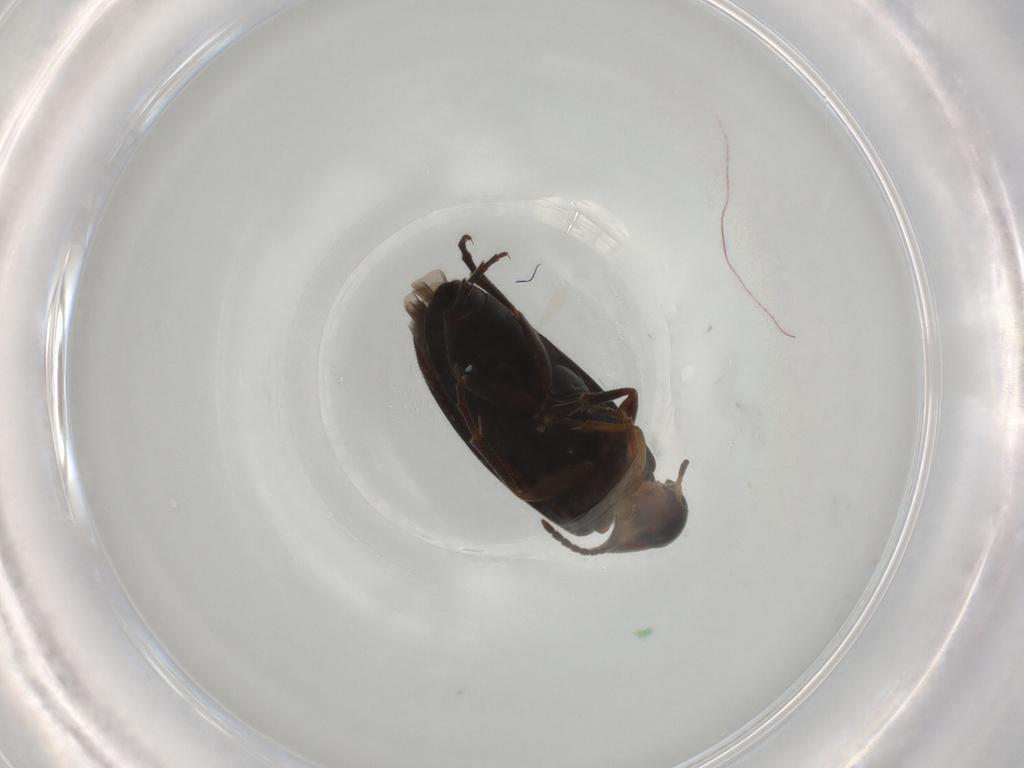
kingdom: Animalia
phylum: Arthropoda
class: Insecta
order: Coleoptera
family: Scraptiidae
